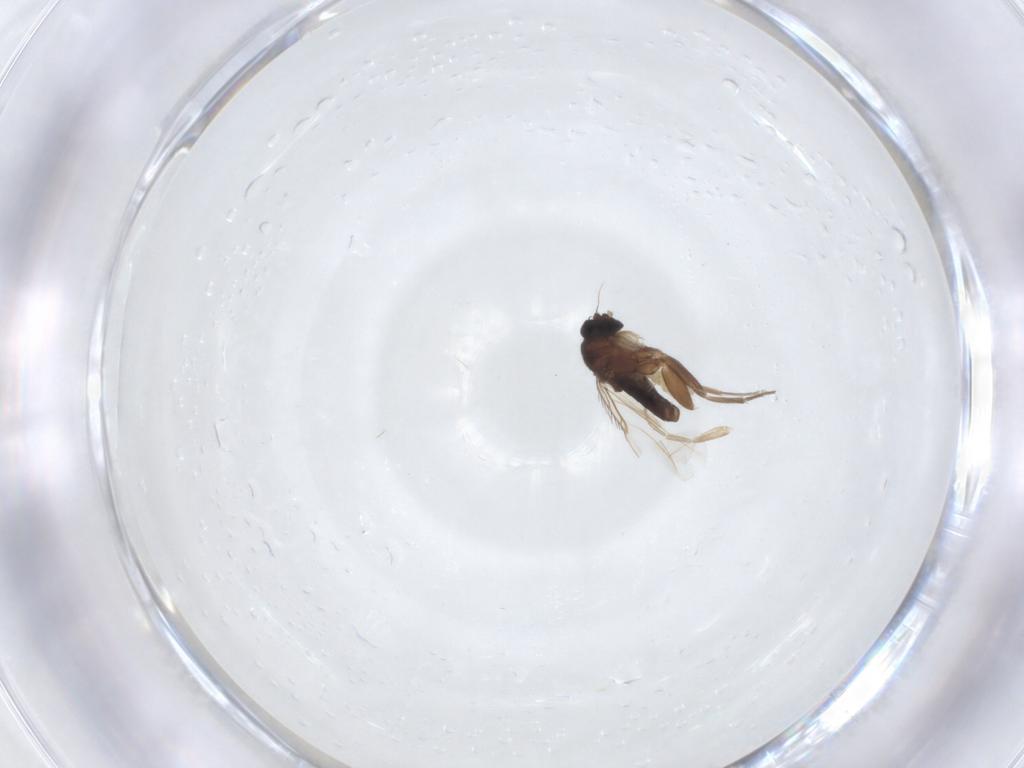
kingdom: Animalia
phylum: Arthropoda
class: Insecta
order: Diptera
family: Phoridae
